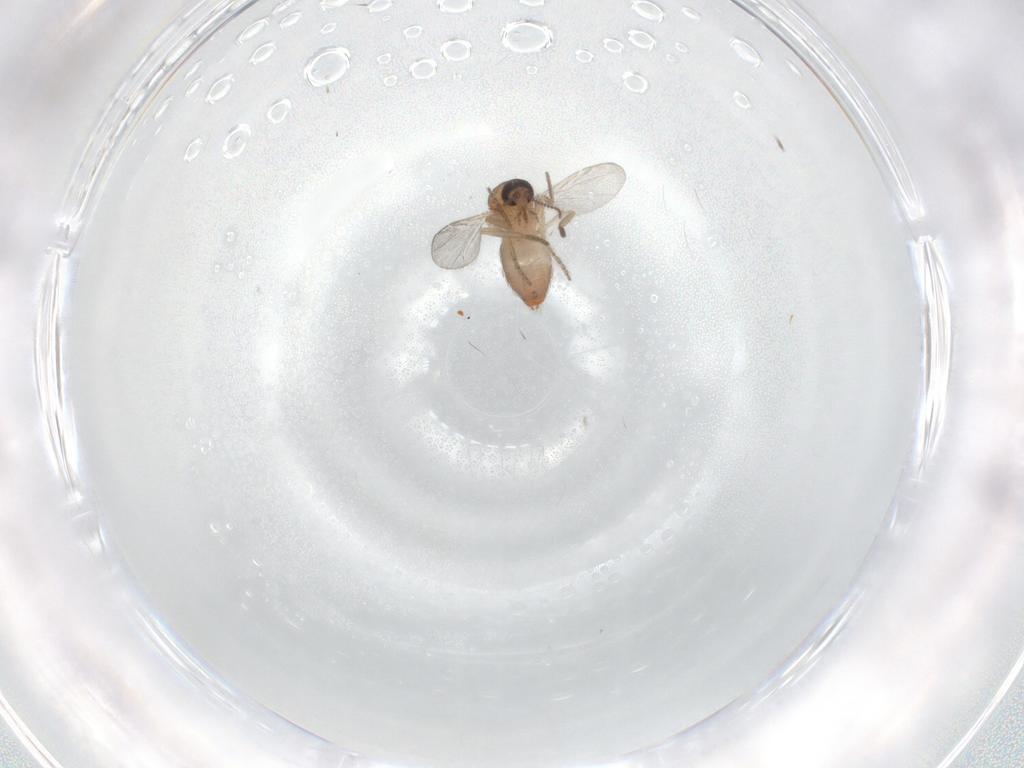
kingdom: Animalia
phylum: Arthropoda
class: Insecta
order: Diptera
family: Ceratopogonidae
